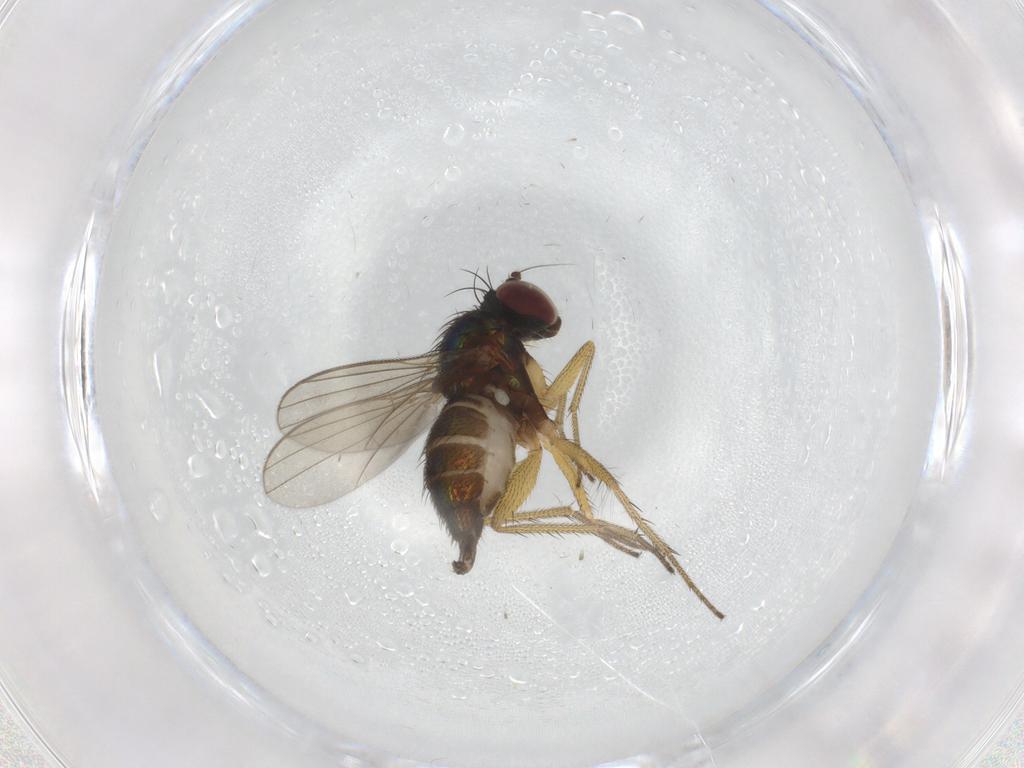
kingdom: Animalia
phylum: Arthropoda
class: Insecta
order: Diptera
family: Dolichopodidae
